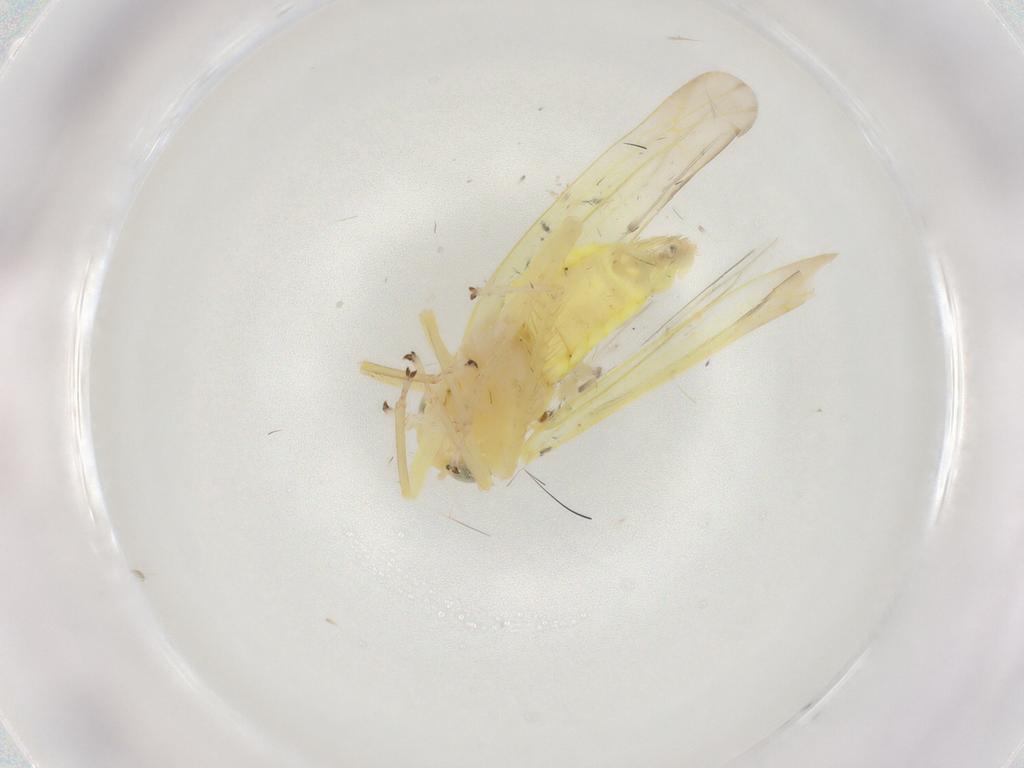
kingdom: Animalia
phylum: Arthropoda
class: Insecta
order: Hemiptera
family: Cicadellidae
